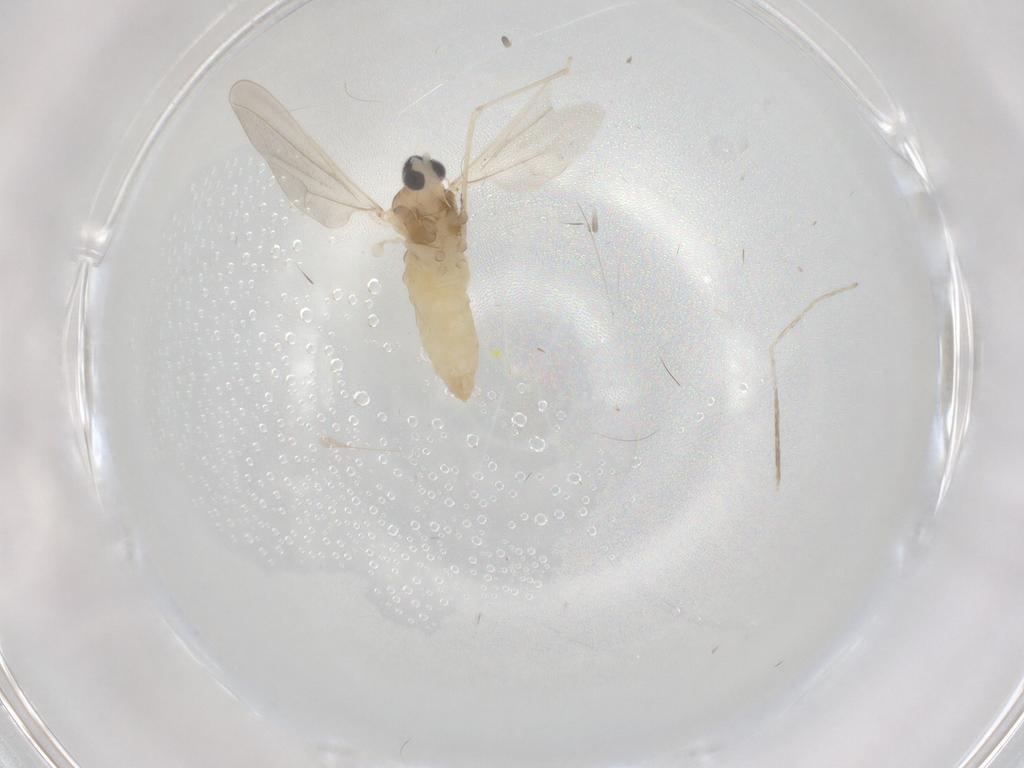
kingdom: Animalia
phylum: Arthropoda
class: Insecta
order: Diptera
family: Cecidomyiidae
